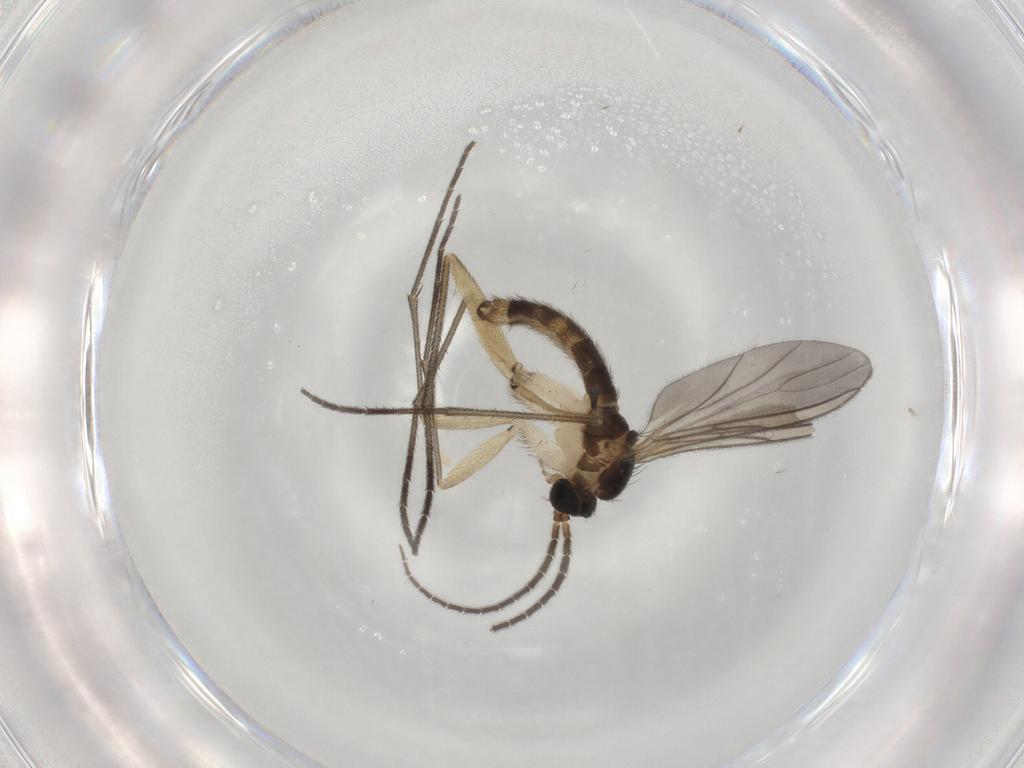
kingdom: Animalia
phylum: Arthropoda
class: Insecta
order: Diptera
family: Sciaridae
